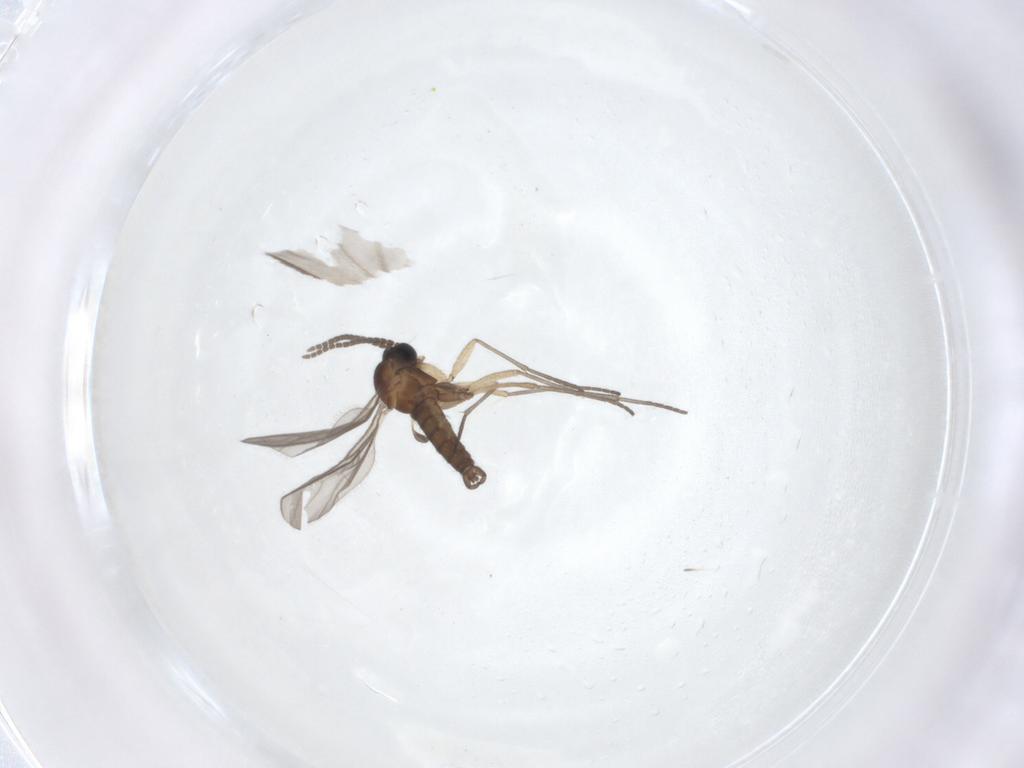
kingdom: Animalia
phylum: Arthropoda
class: Insecta
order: Diptera
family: Sciaridae
